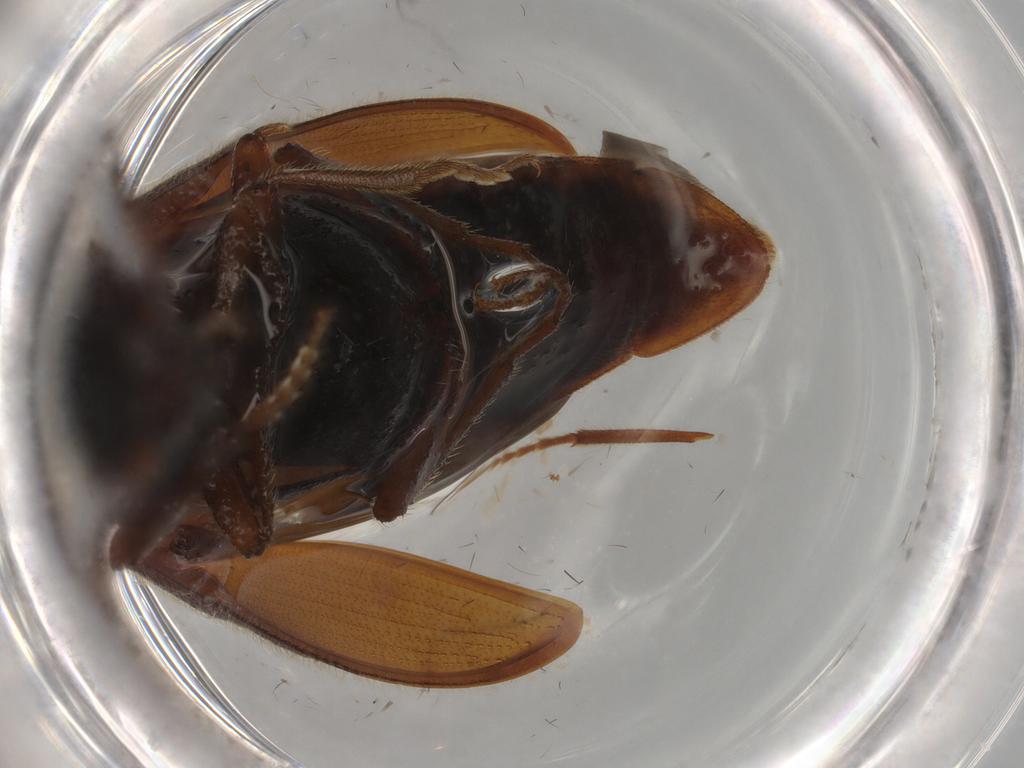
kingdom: Animalia
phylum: Arthropoda
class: Insecta
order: Coleoptera
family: Elateridae
